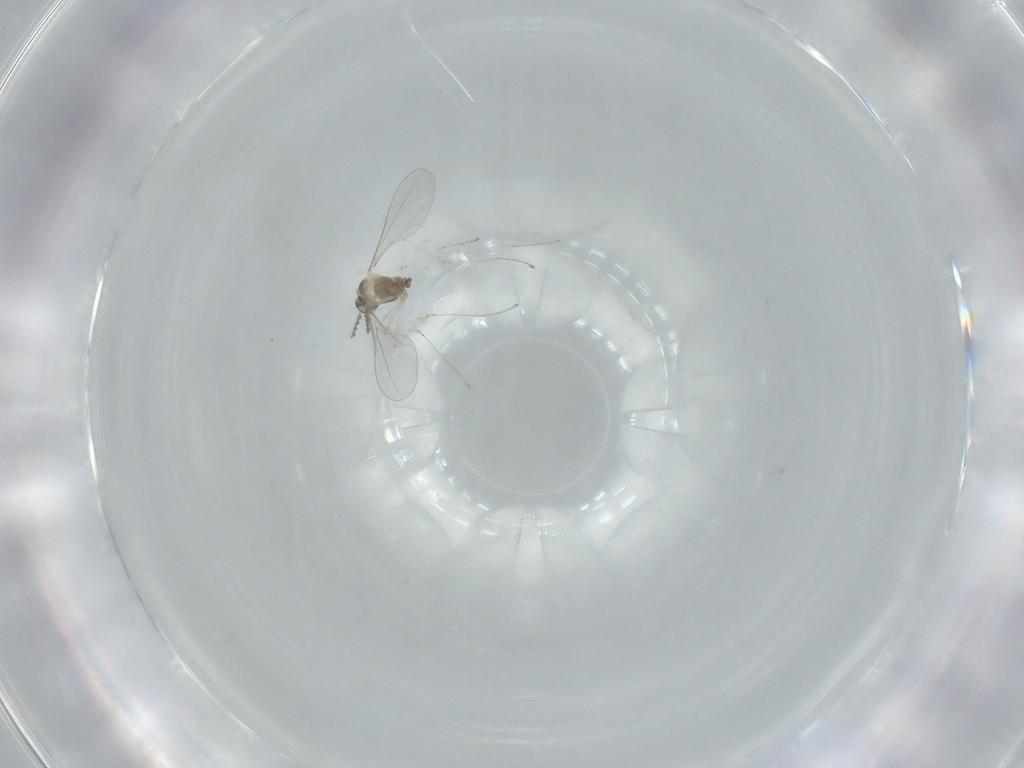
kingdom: Animalia
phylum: Arthropoda
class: Insecta
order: Diptera
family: Cecidomyiidae
